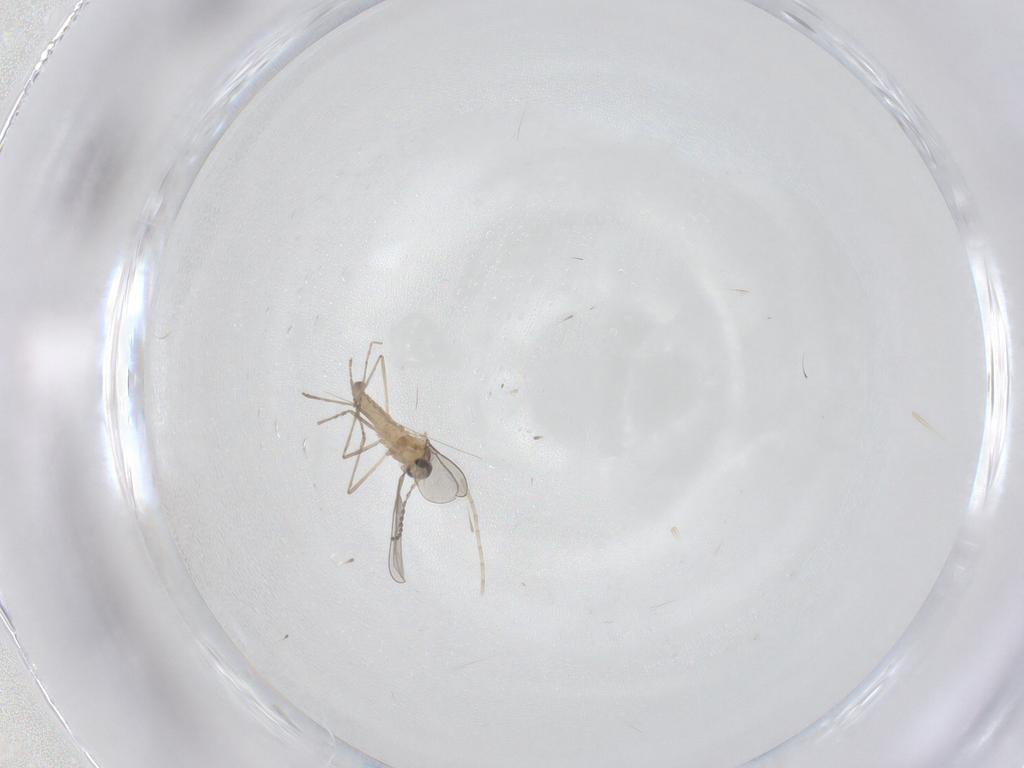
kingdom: Animalia
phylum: Arthropoda
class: Insecta
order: Diptera
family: Cecidomyiidae
